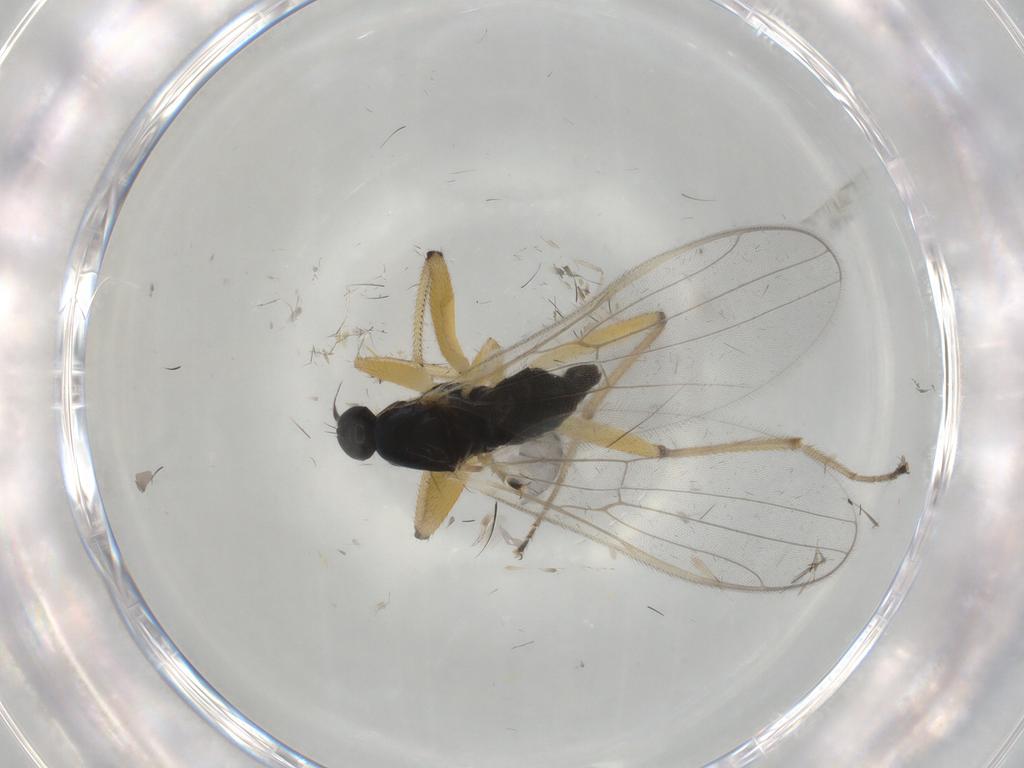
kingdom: Animalia
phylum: Arthropoda
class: Insecta
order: Diptera
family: Hybotidae
